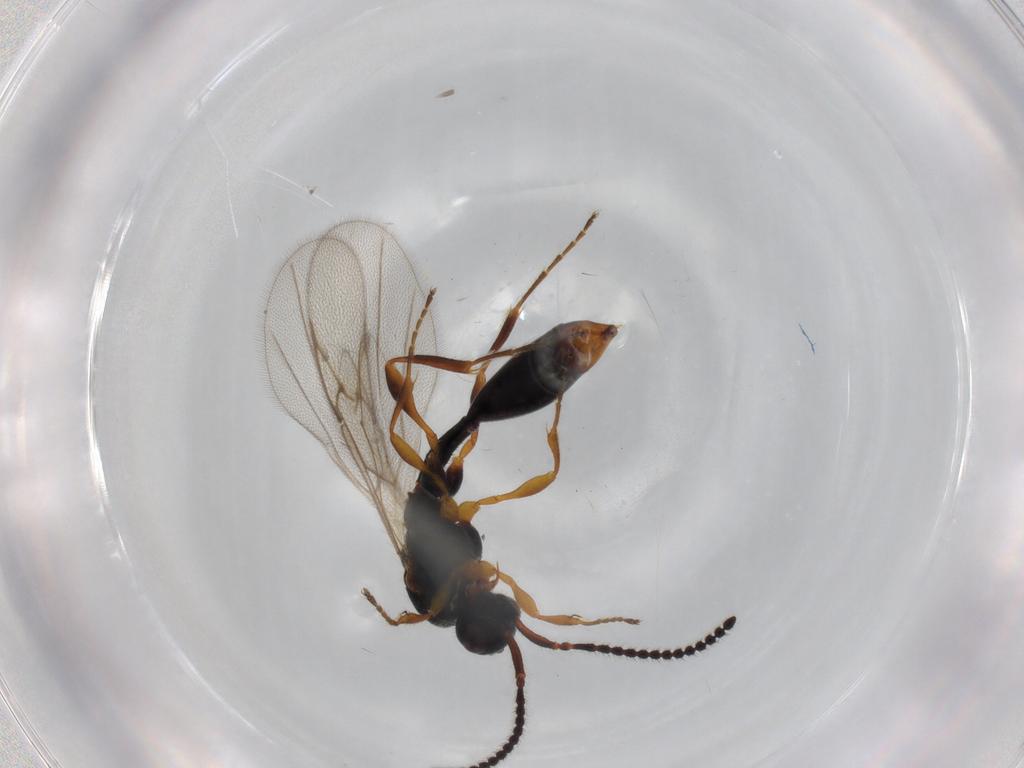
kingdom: Animalia
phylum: Arthropoda
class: Insecta
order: Hymenoptera
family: Diapriidae
